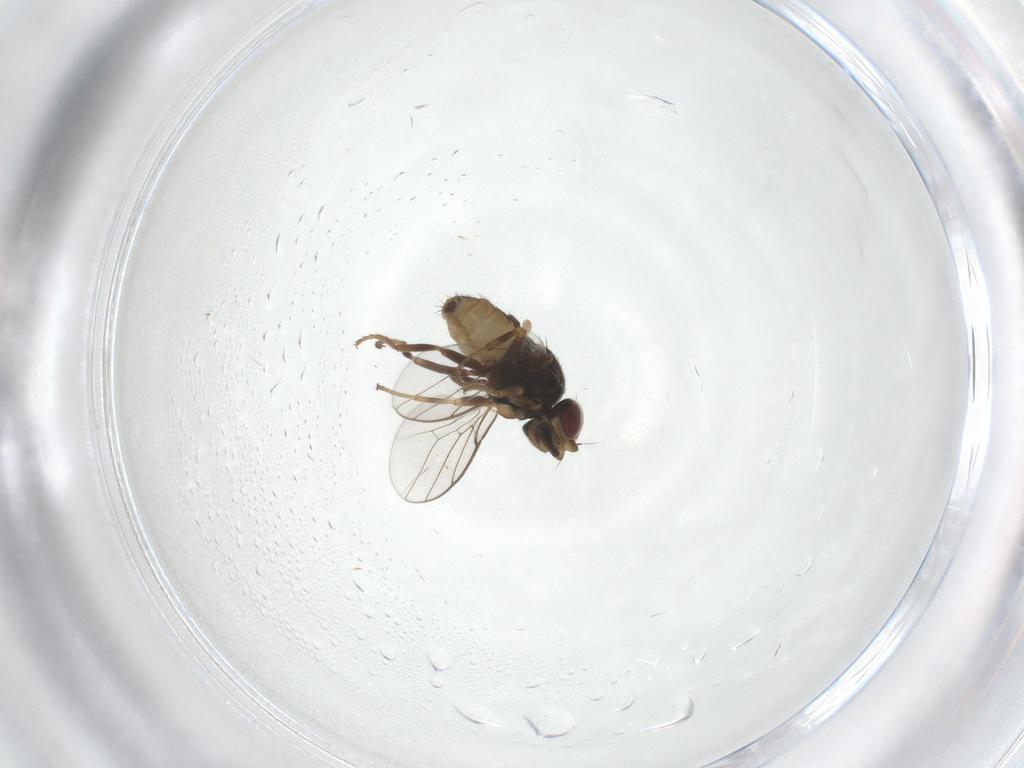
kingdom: Animalia
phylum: Arthropoda
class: Insecta
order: Diptera
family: Chloropidae
